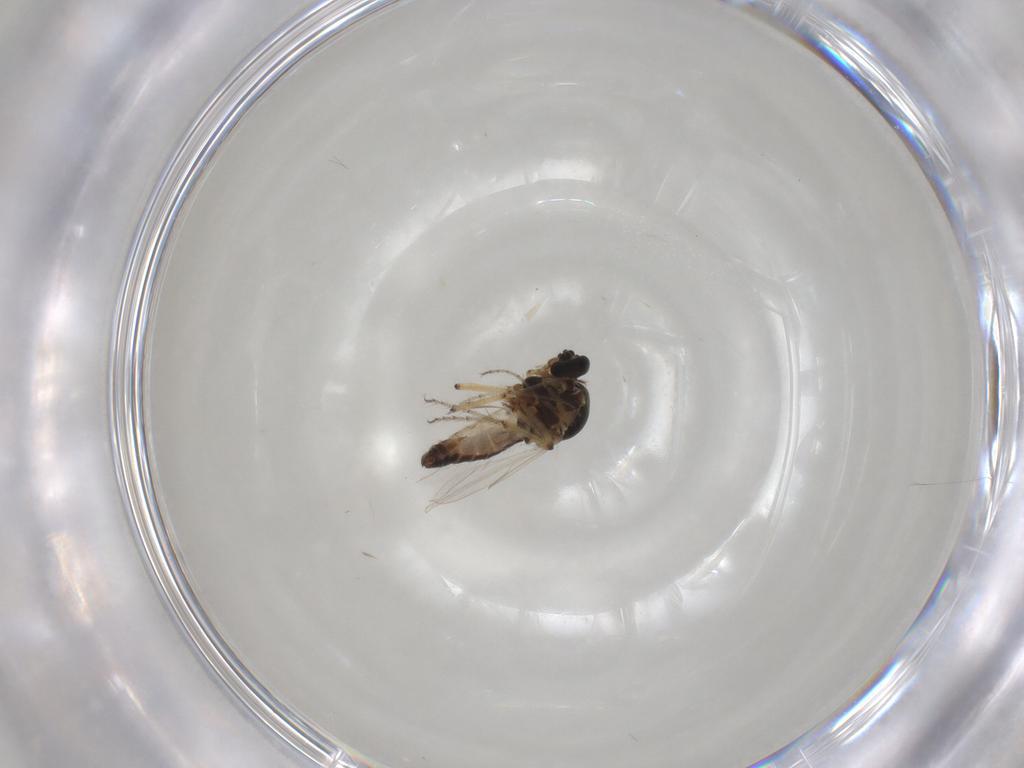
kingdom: Animalia
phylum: Arthropoda
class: Insecta
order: Diptera
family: Ceratopogonidae
